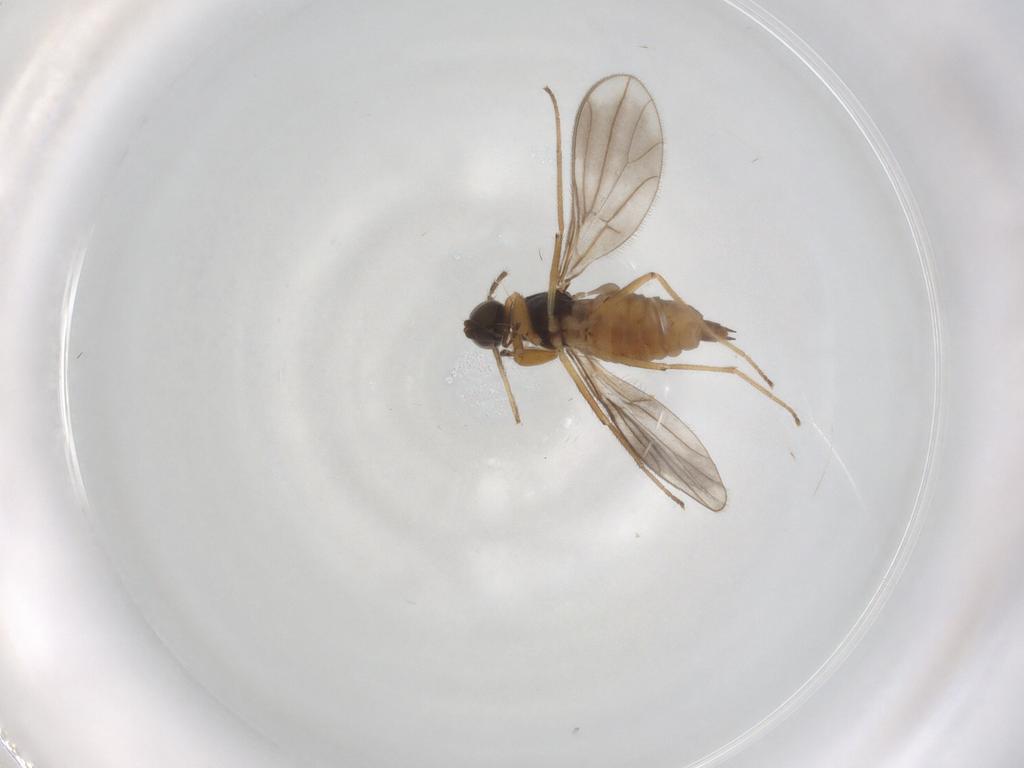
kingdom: Animalia
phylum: Arthropoda
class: Insecta
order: Diptera
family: Empididae
